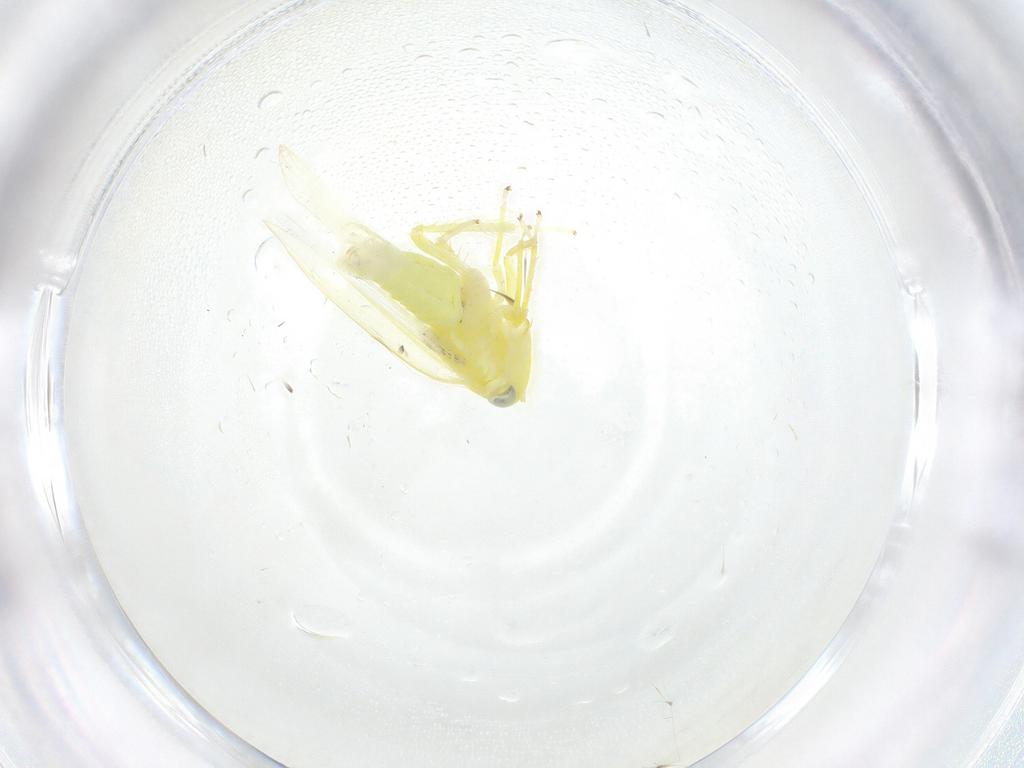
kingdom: Animalia
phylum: Arthropoda
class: Insecta
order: Hemiptera
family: Cicadellidae
